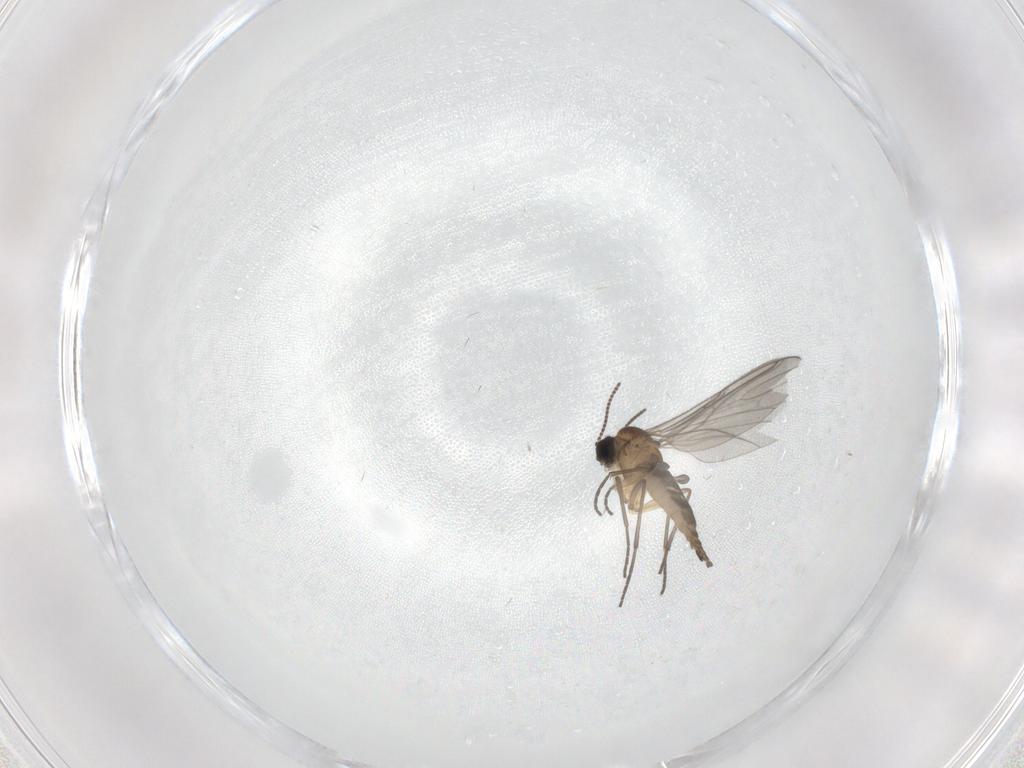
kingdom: Animalia
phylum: Arthropoda
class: Insecta
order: Diptera
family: Sciaridae
